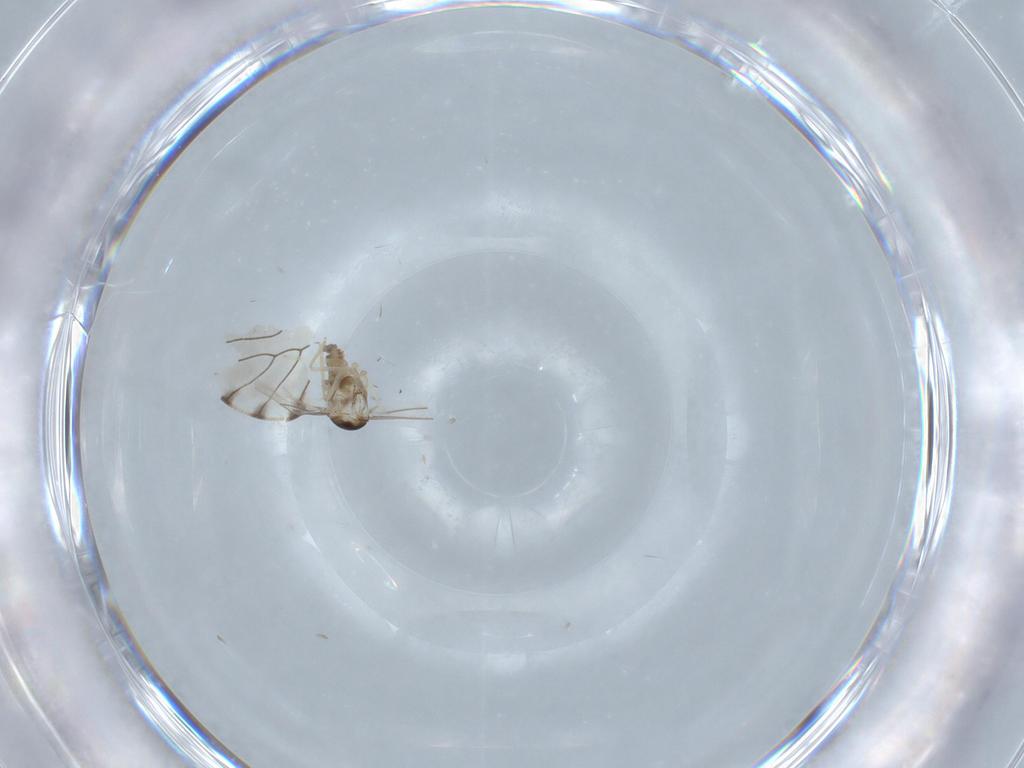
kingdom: Animalia
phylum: Arthropoda
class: Insecta
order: Diptera
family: Cecidomyiidae
